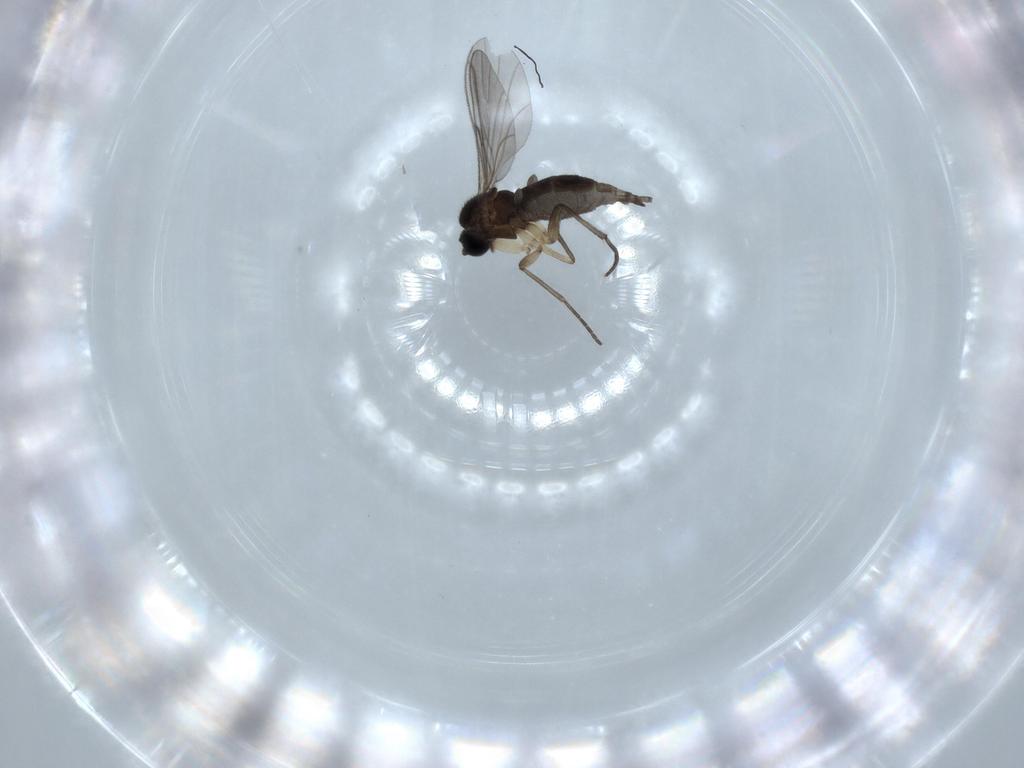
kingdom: Animalia
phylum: Arthropoda
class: Insecta
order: Diptera
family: Sciaridae
